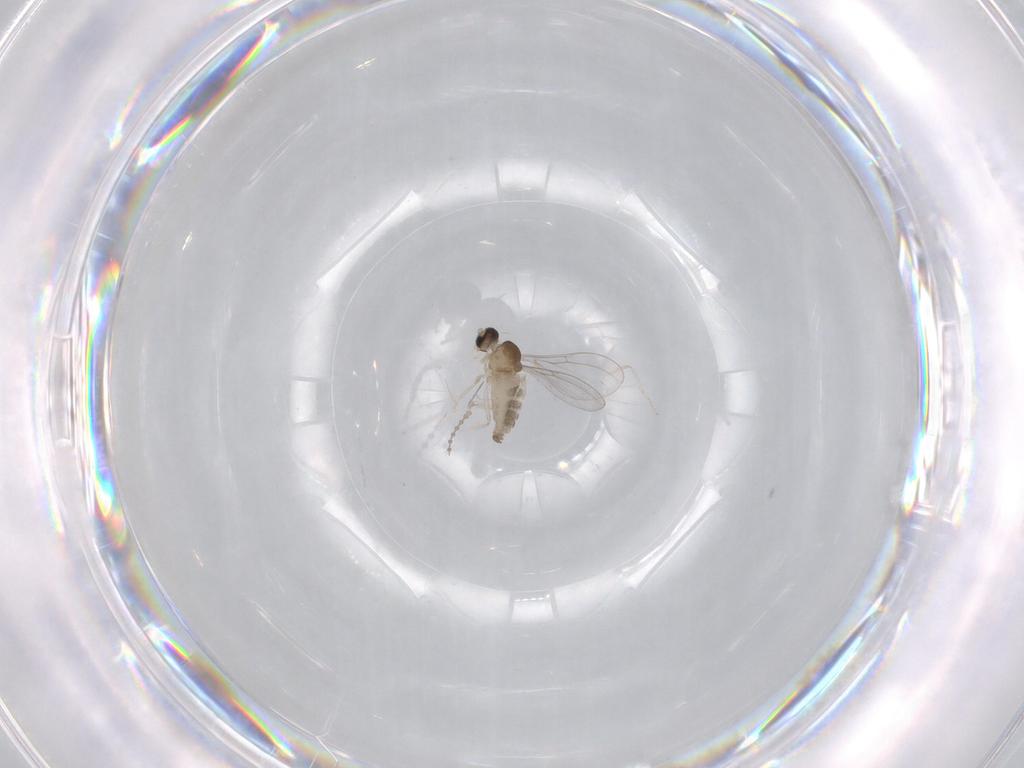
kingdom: Animalia
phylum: Arthropoda
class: Insecta
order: Diptera
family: Cecidomyiidae
